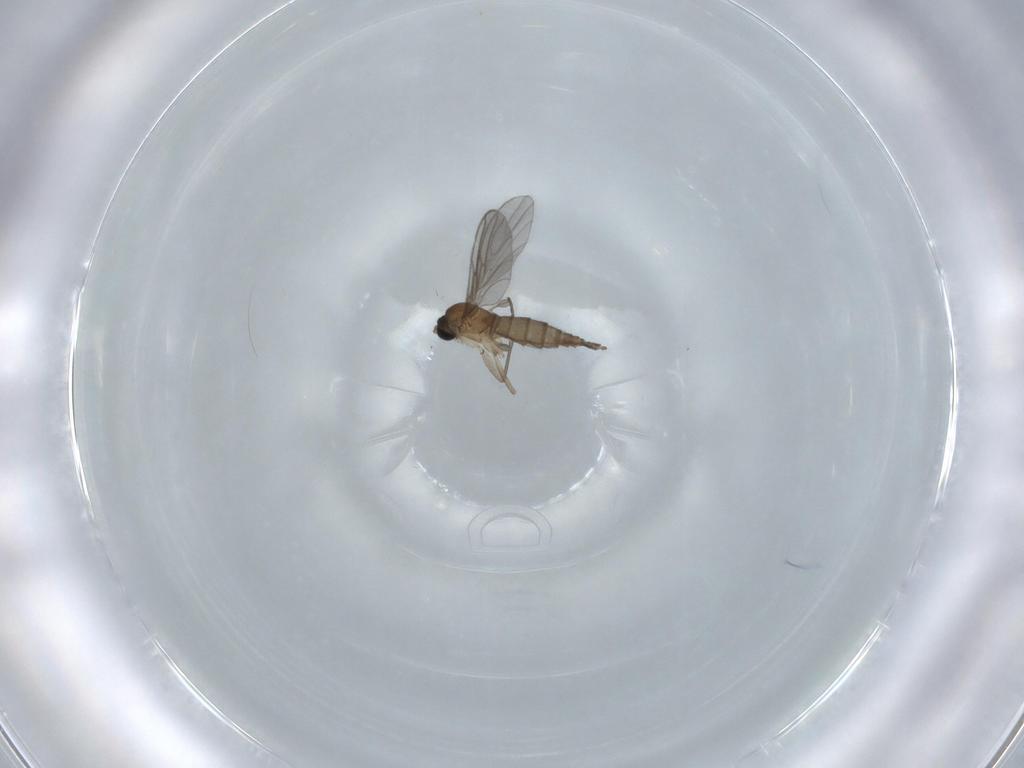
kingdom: Animalia
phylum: Arthropoda
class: Insecta
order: Diptera
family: Sciaridae
